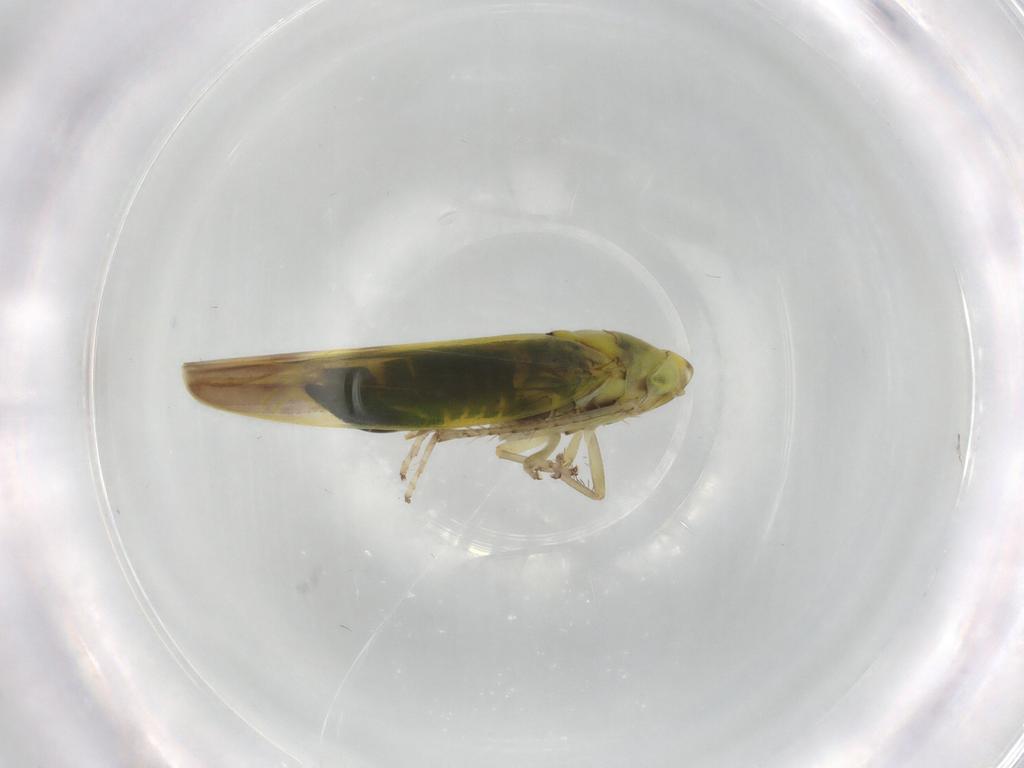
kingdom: Animalia
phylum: Arthropoda
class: Insecta
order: Hemiptera
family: Cicadellidae
